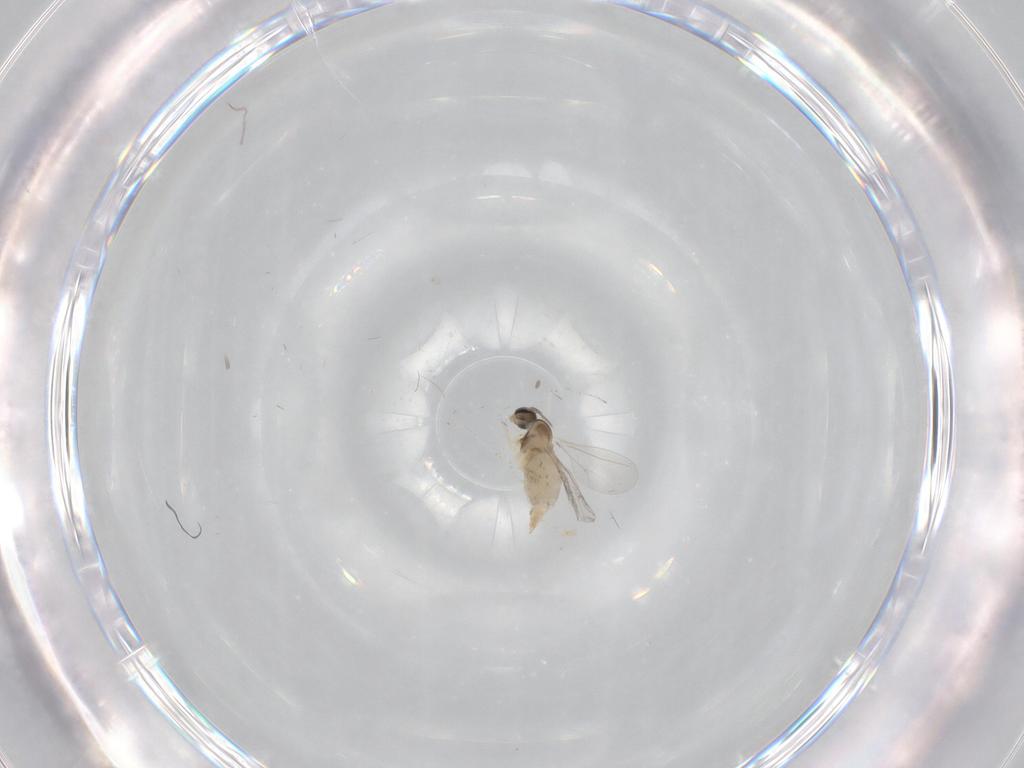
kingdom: Animalia
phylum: Arthropoda
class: Insecta
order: Diptera
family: Cecidomyiidae
